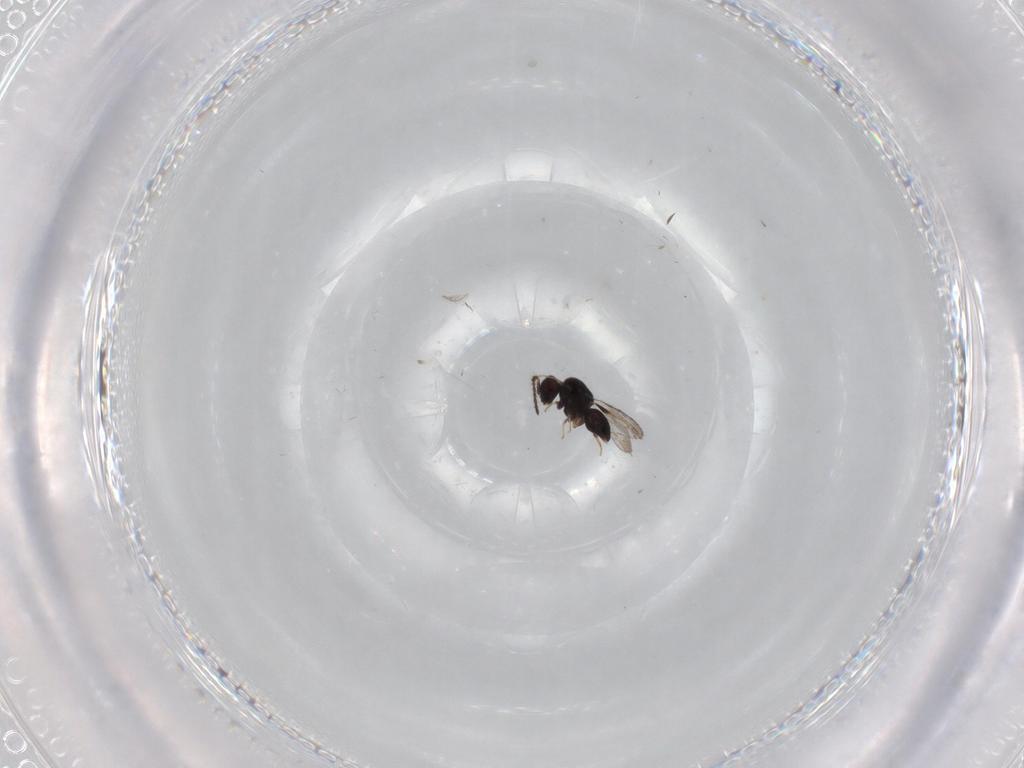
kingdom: Animalia
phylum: Arthropoda
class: Insecta
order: Hymenoptera
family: Ceraphronidae
